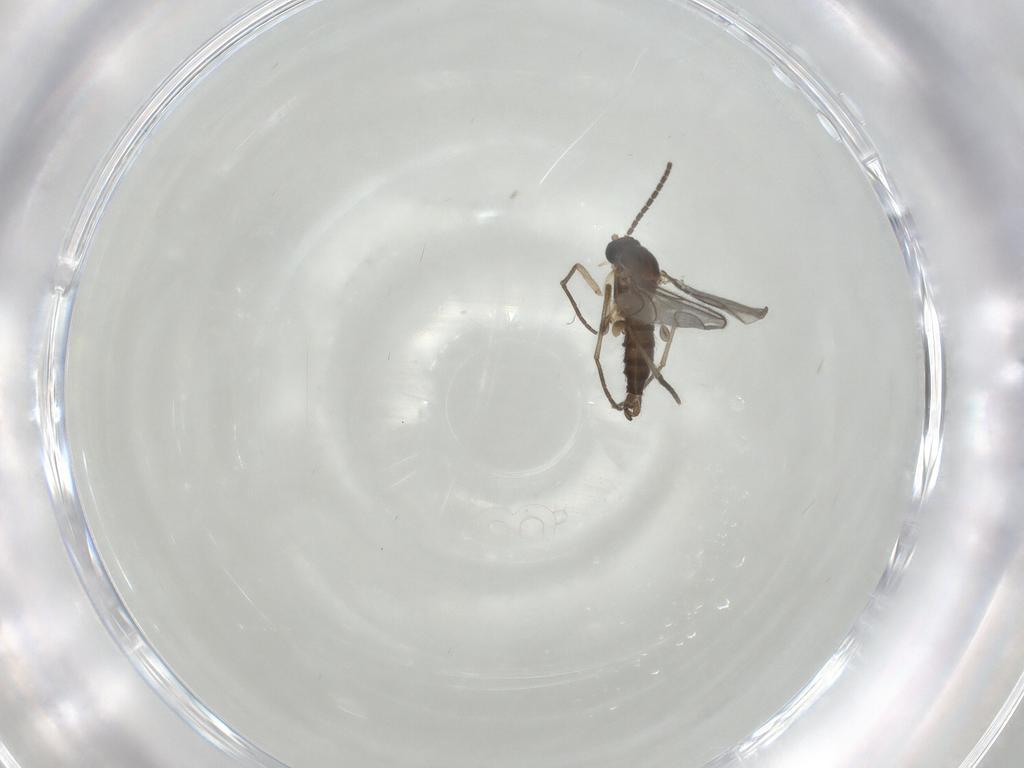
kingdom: Animalia
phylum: Arthropoda
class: Insecta
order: Diptera
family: Sciaridae
